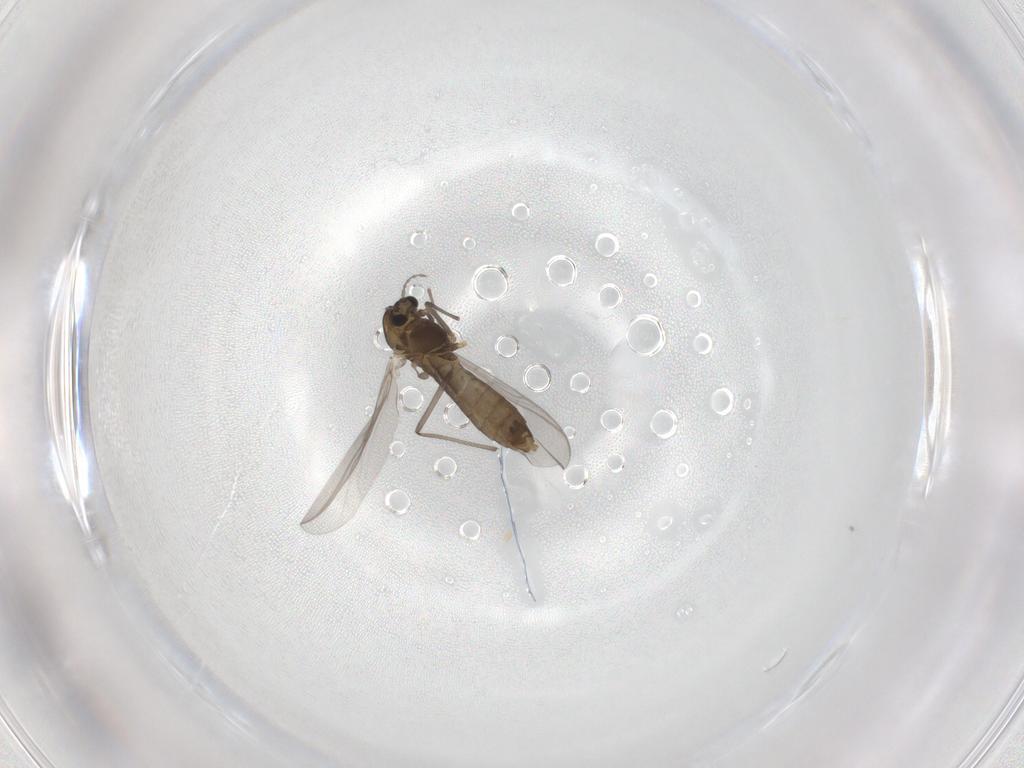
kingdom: Animalia
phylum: Arthropoda
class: Insecta
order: Diptera
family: Chironomidae
